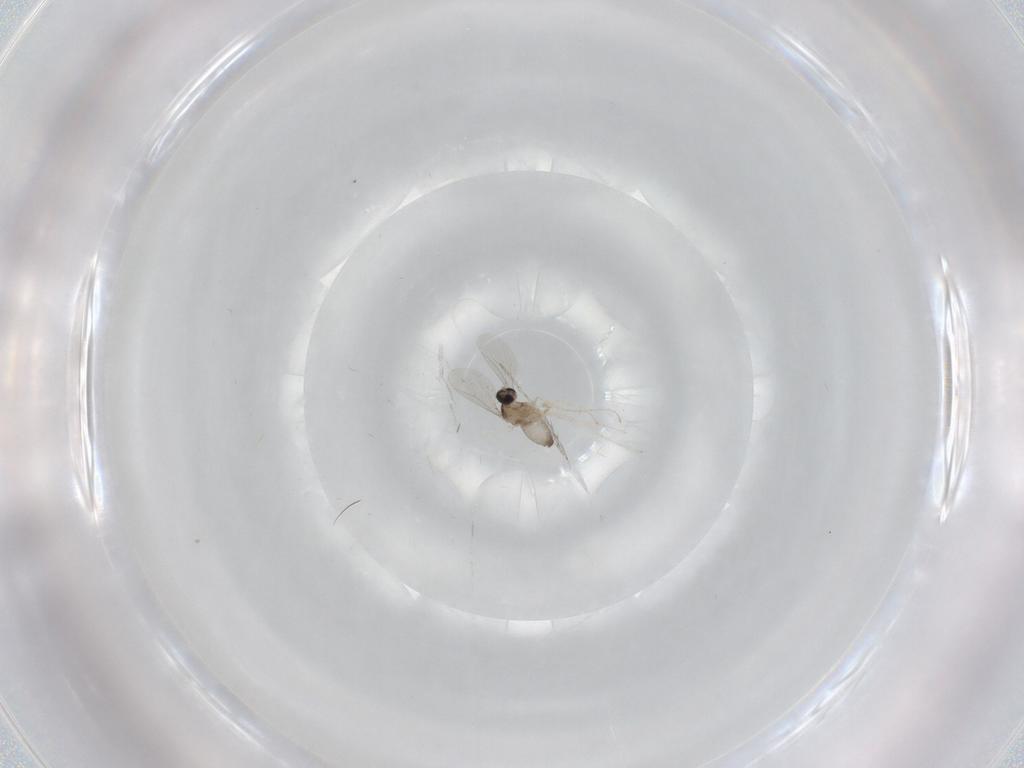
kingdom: Animalia
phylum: Arthropoda
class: Insecta
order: Diptera
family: Cecidomyiidae
